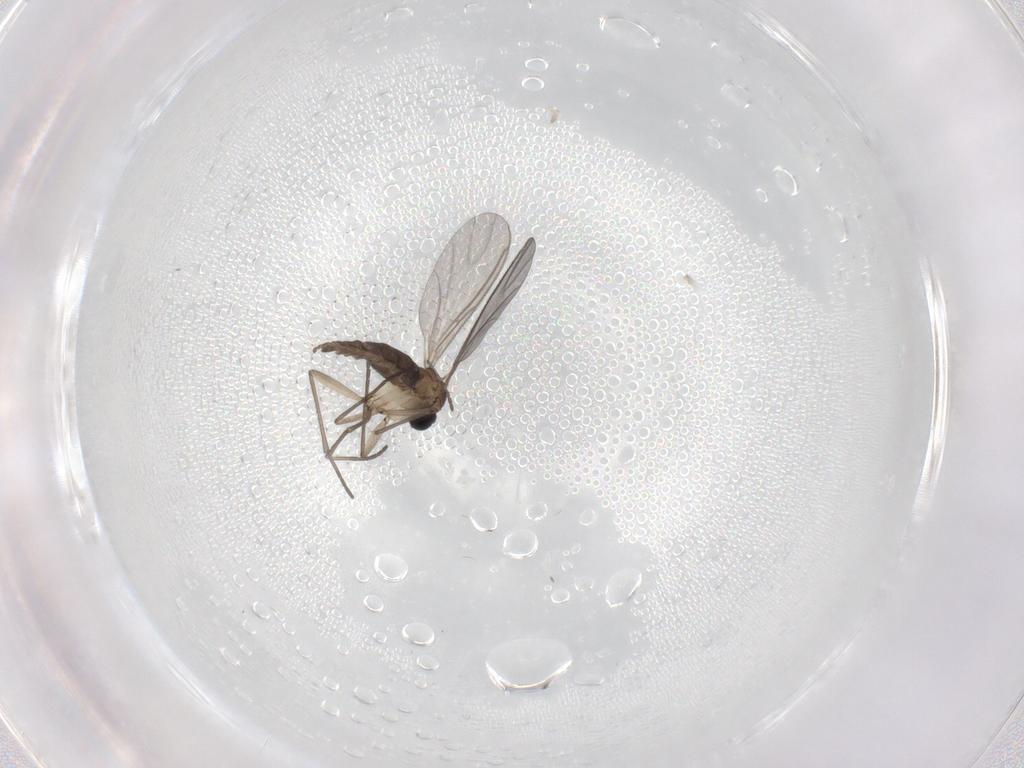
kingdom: Animalia
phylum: Arthropoda
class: Insecta
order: Diptera
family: Sciaridae
